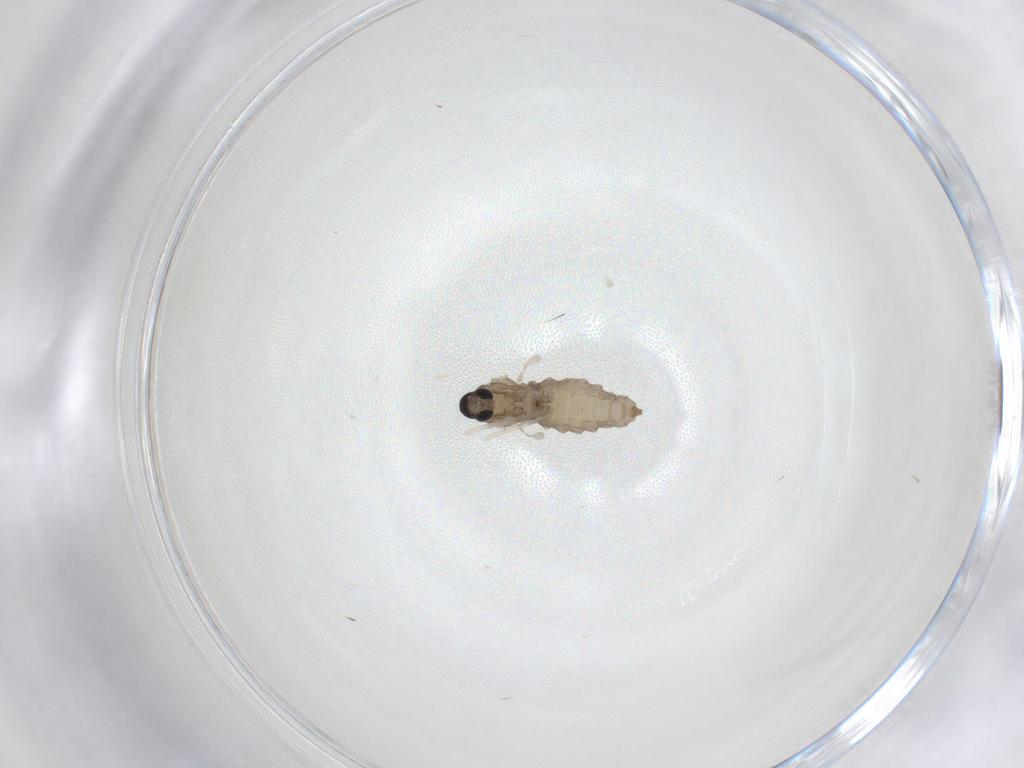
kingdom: Animalia
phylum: Arthropoda
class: Insecta
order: Diptera
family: Cecidomyiidae
